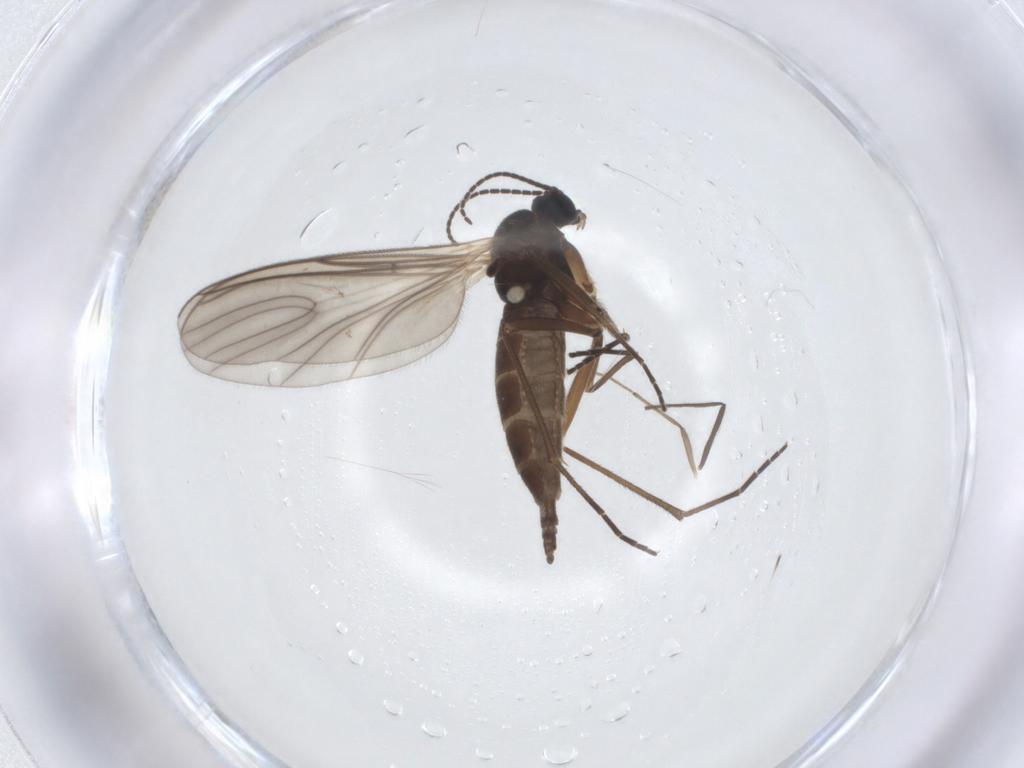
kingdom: Animalia
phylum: Arthropoda
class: Insecta
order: Diptera
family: Sciaridae
